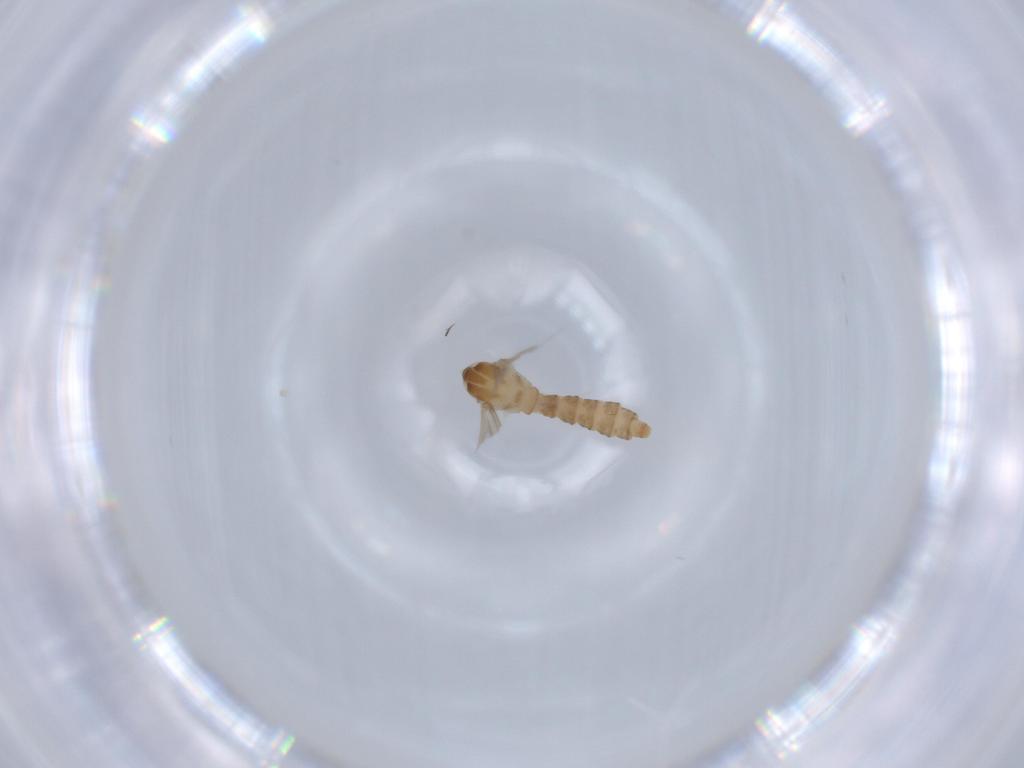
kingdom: Animalia
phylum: Arthropoda
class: Insecta
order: Diptera
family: Cecidomyiidae
